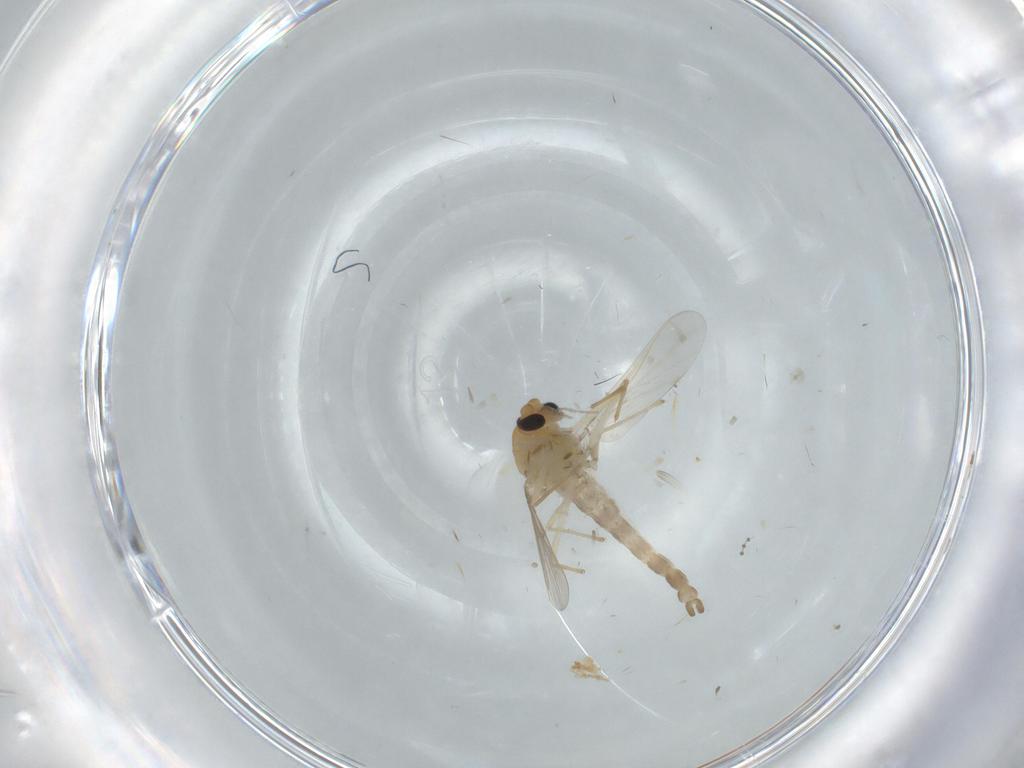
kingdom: Animalia
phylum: Arthropoda
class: Insecta
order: Diptera
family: Chironomidae
